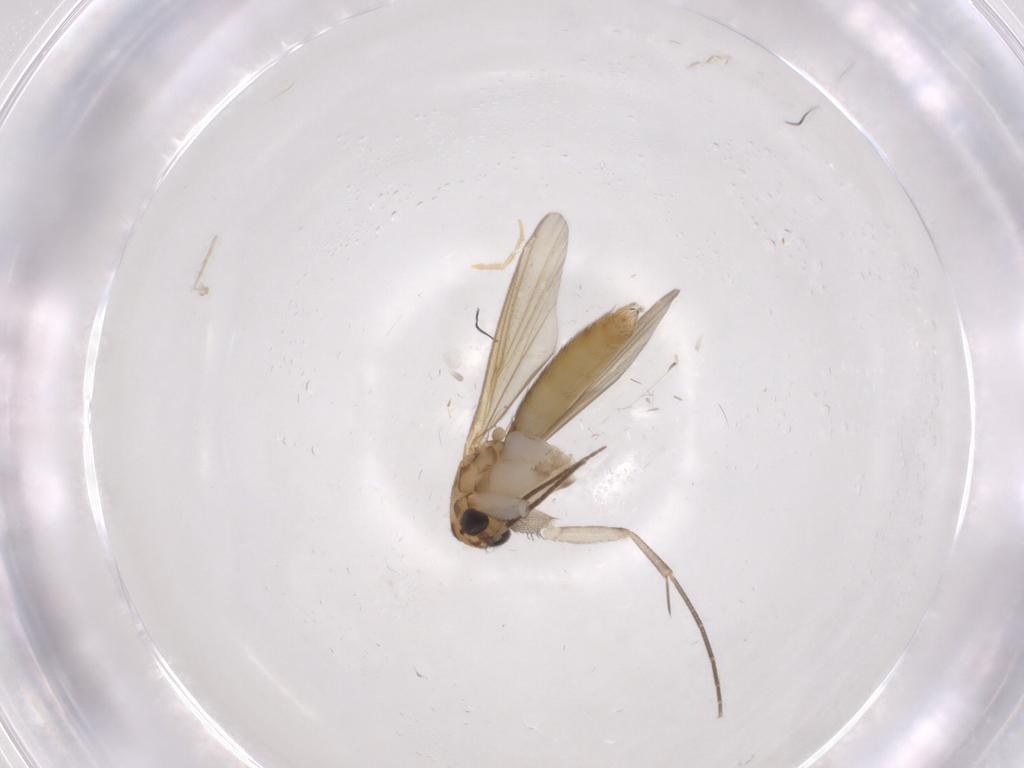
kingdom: Animalia
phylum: Arthropoda
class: Insecta
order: Diptera
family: Mycetophilidae
